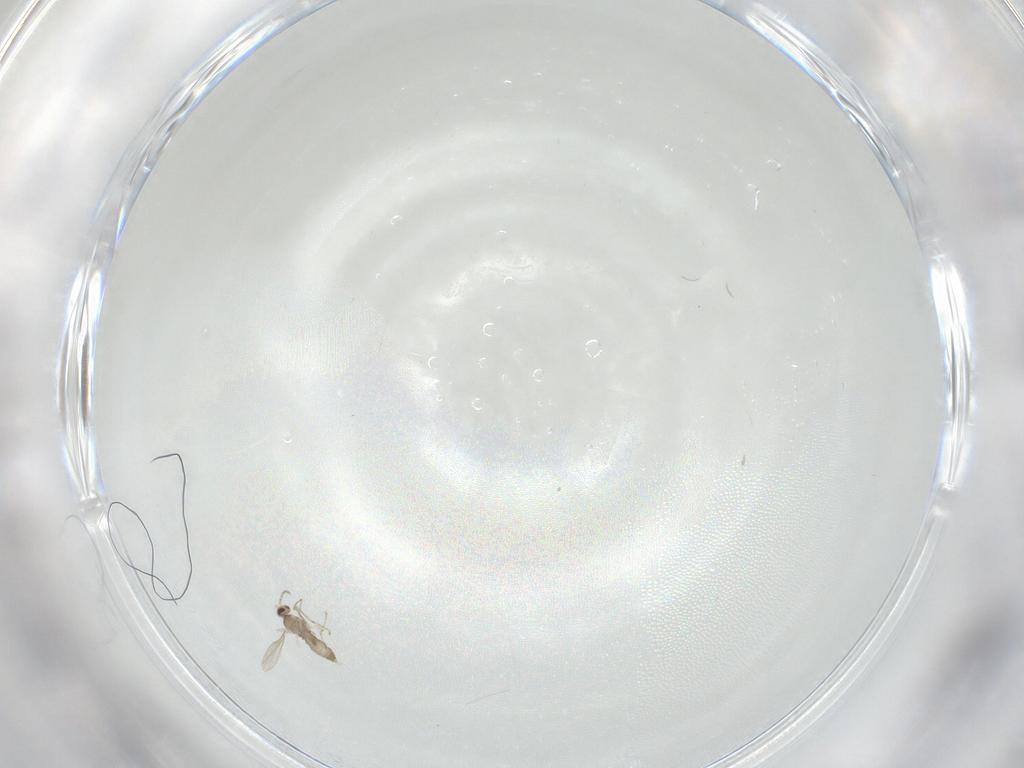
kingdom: Animalia
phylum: Arthropoda
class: Insecta
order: Diptera
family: Cecidomyiidae
